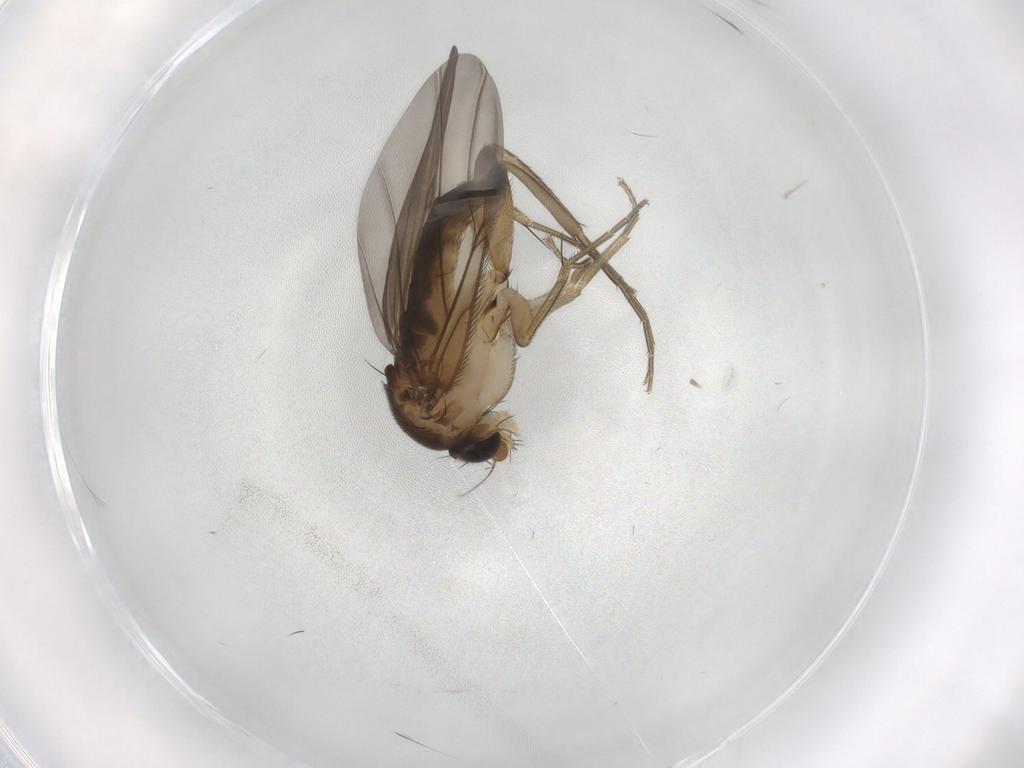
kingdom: Animalia
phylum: Arthropoda
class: Insecta
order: Diptera
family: Phoridae
